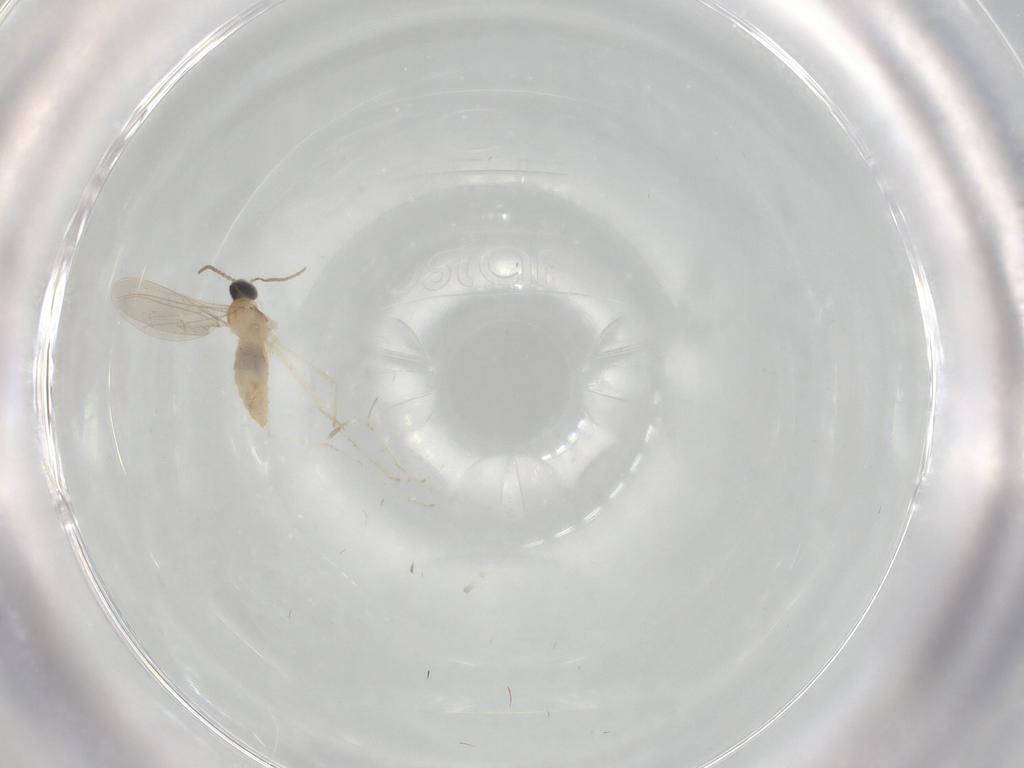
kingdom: Animalia
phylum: Arthropoda
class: Insecta
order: Diptera
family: Cecidomyiidae
